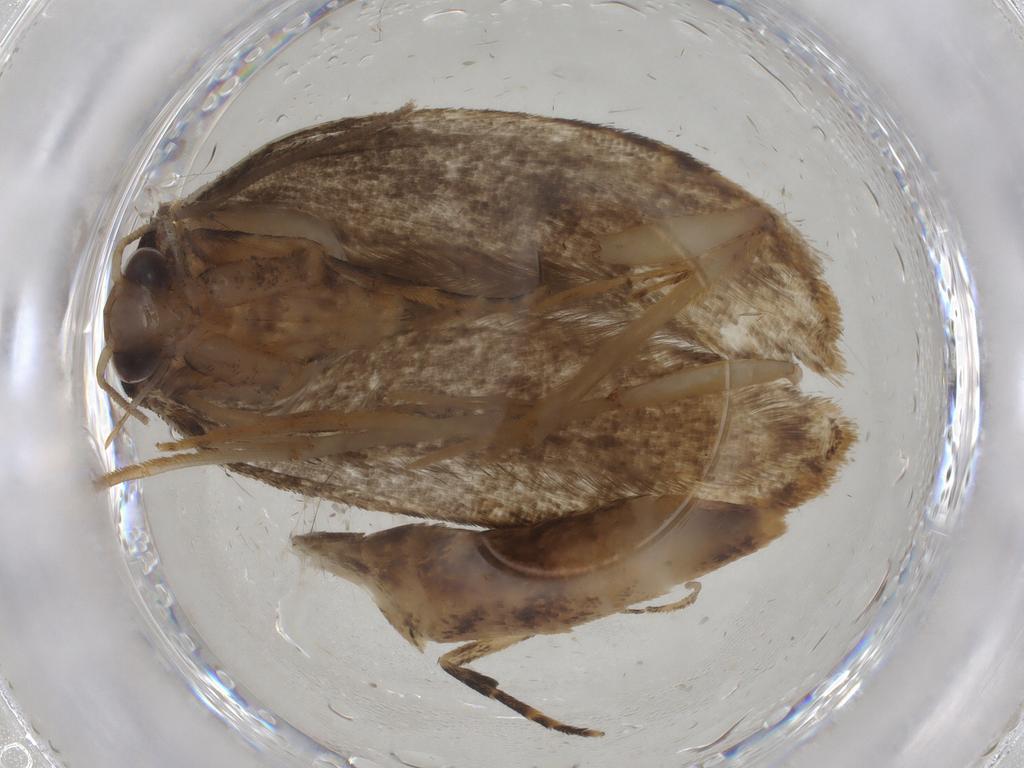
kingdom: Animalia
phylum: Arthropoda
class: Insecta
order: Lepidoptera
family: Tineidae
